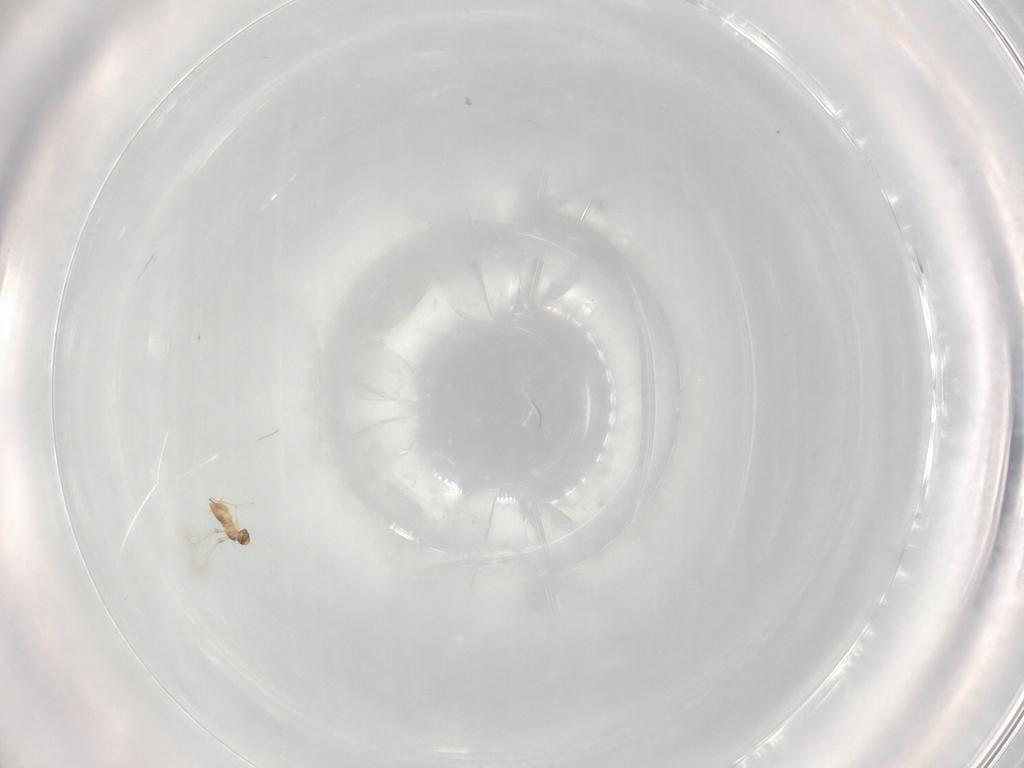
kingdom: Animalia
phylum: Arthropoda
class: Insecta
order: Hymenoptera
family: Mymaridae
